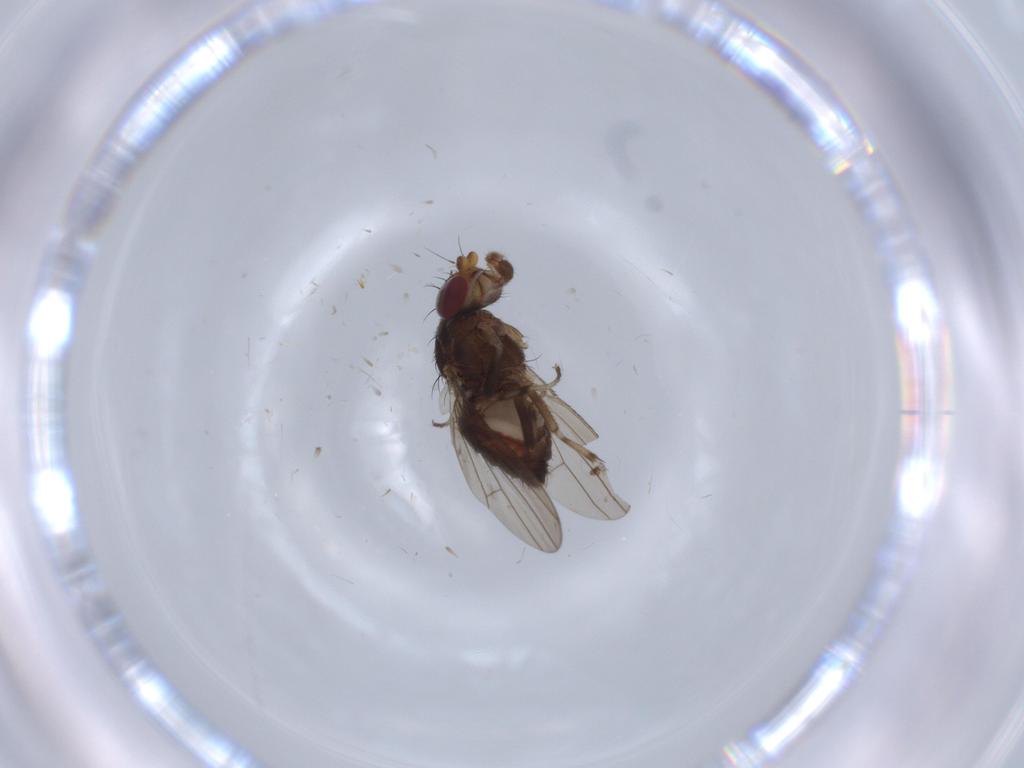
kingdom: Animalia
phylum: Arthropoda
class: Insecta
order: Diptera
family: Heleomyzidae
